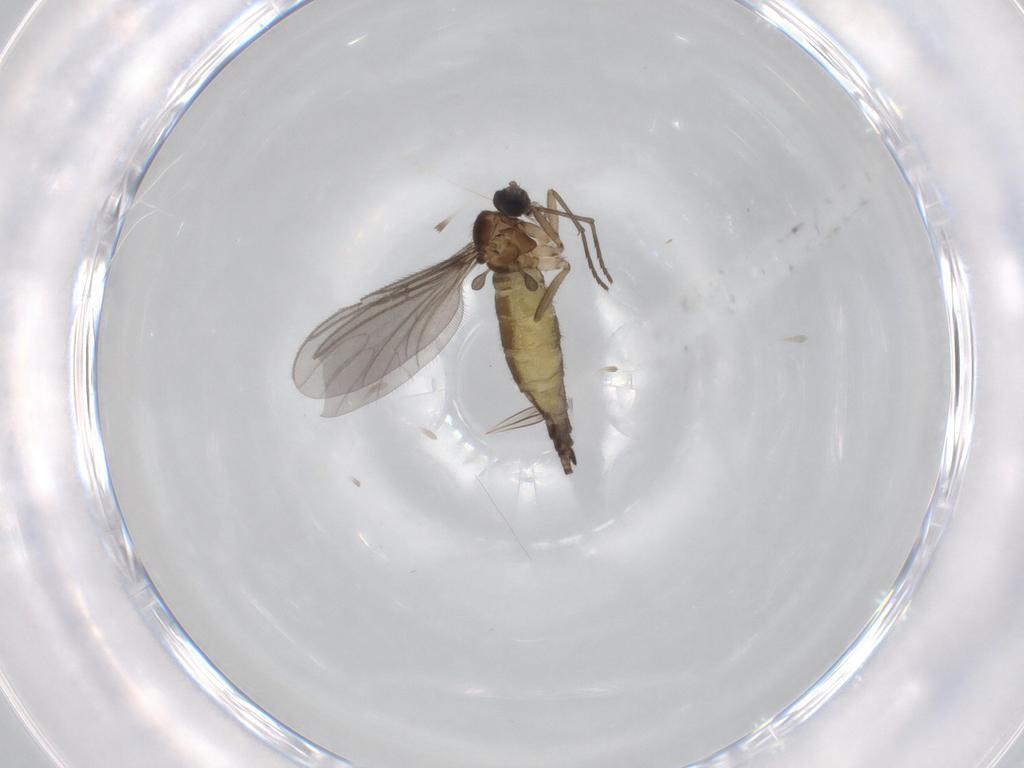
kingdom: Animalia
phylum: Arthropoda
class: Insecta
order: Diptera
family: Sciaridae
